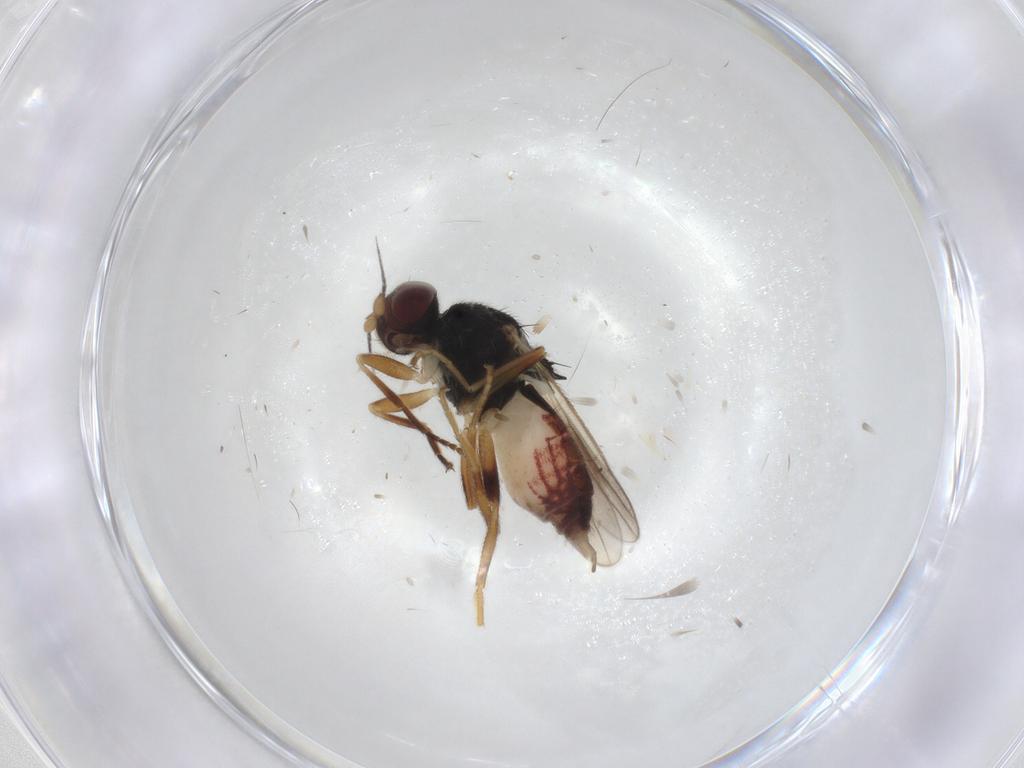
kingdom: Animalia
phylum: Arthropoda
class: Insecta
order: Diptera
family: Chloropidae
